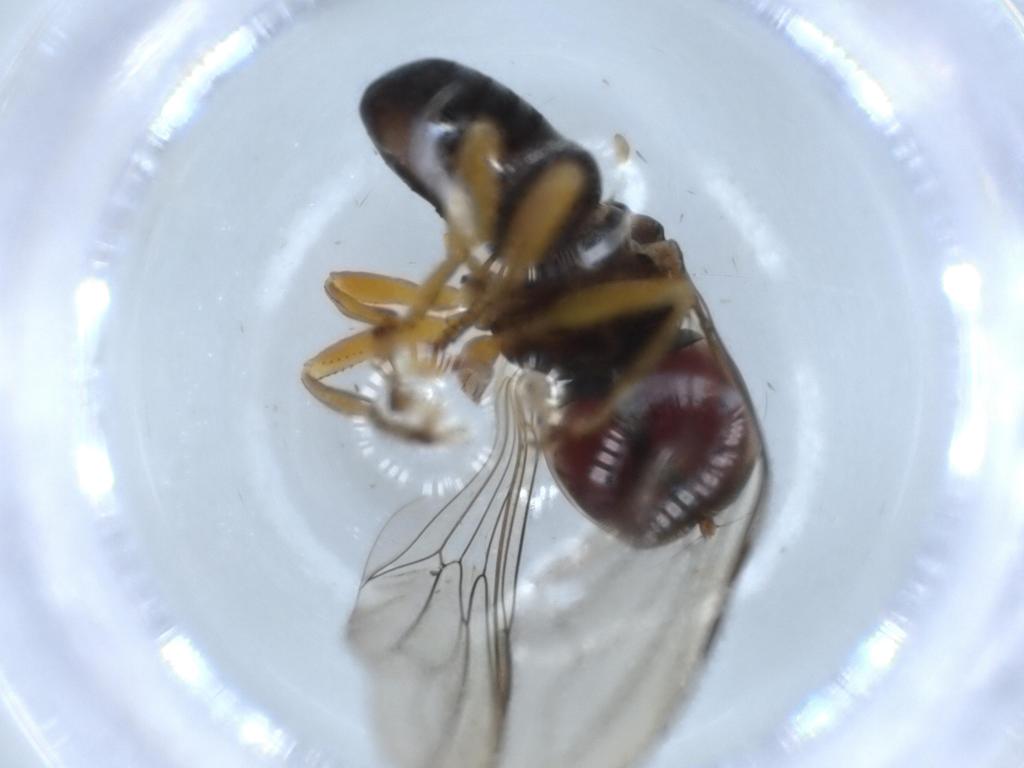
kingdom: Animalia
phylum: Arthropoda
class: Insecta
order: Diptera
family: Pipunculidae
